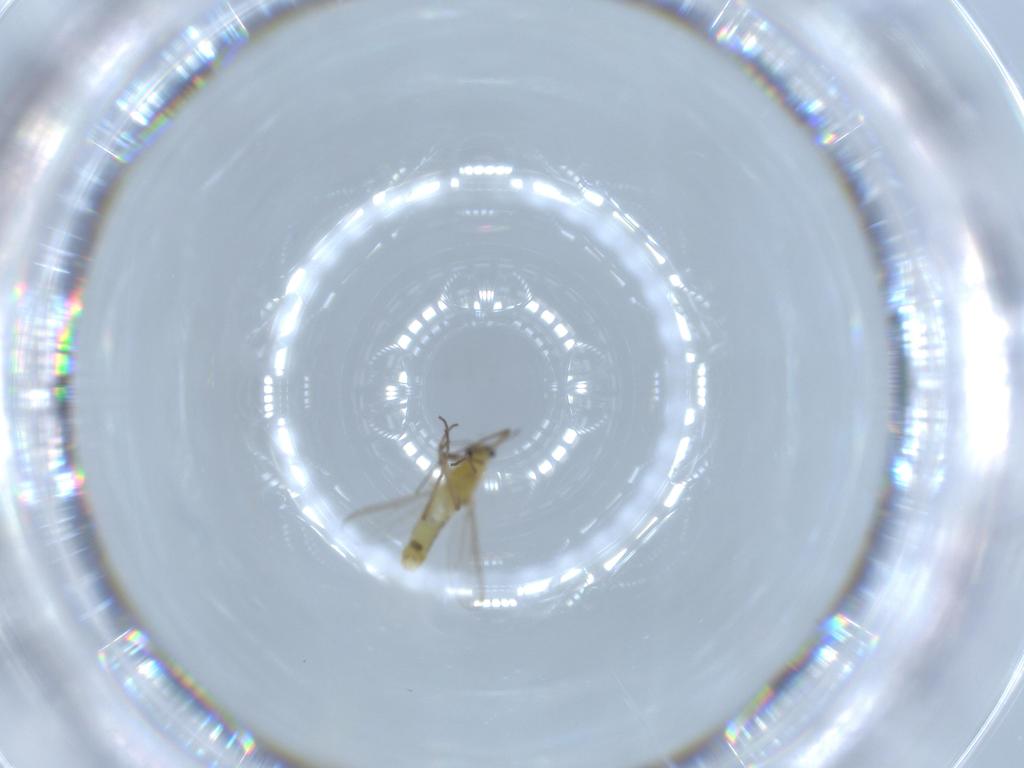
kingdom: Animalia
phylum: Arthropoda
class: Insecta
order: Diptera
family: Chironomidae
